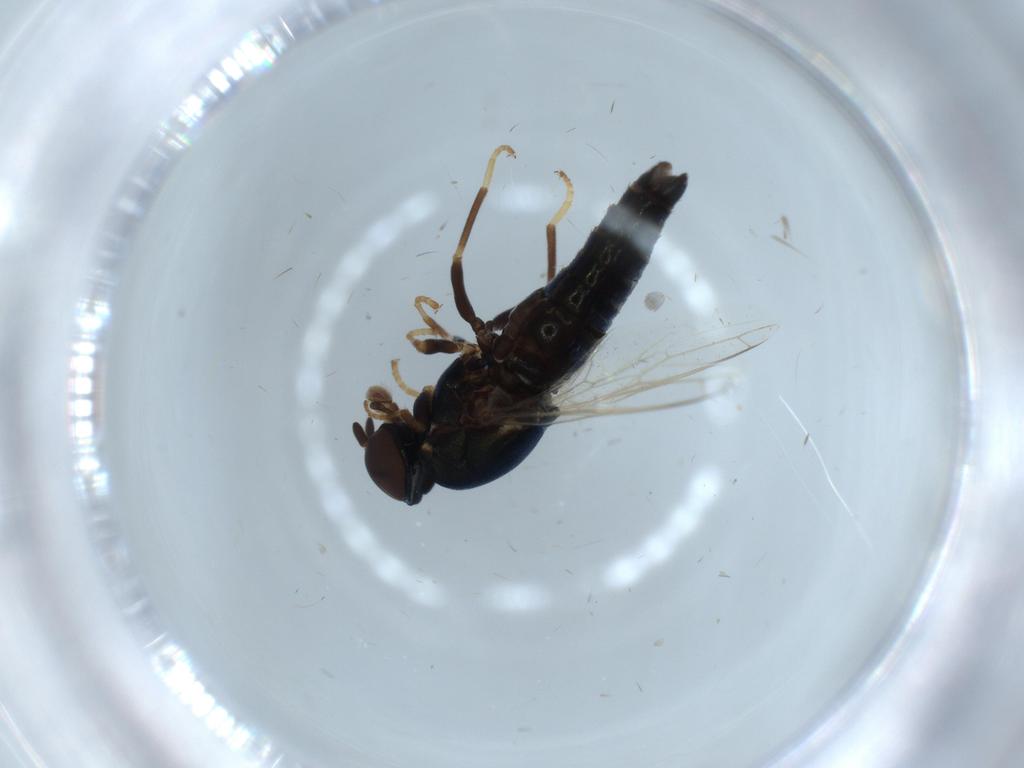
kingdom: Animalia
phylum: Arthropoda
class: Insecta
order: Diptera
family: Scenopinidae
